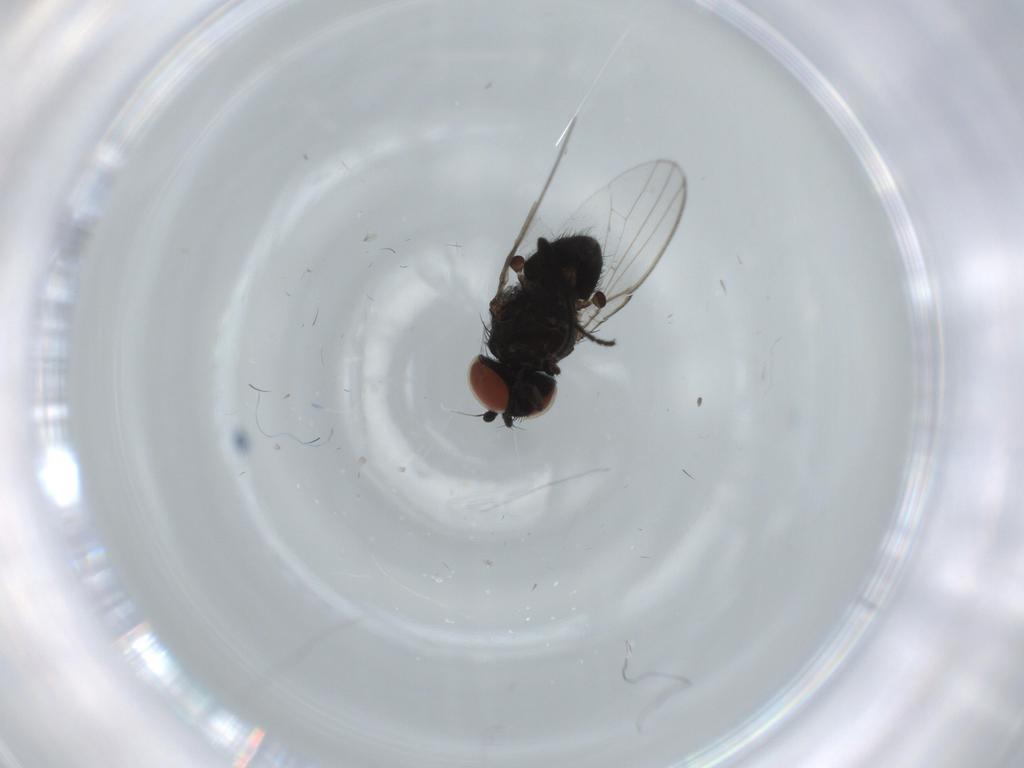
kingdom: Animalia
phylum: Arthropoda
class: Insecta
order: Diptera
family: Milichiidae
